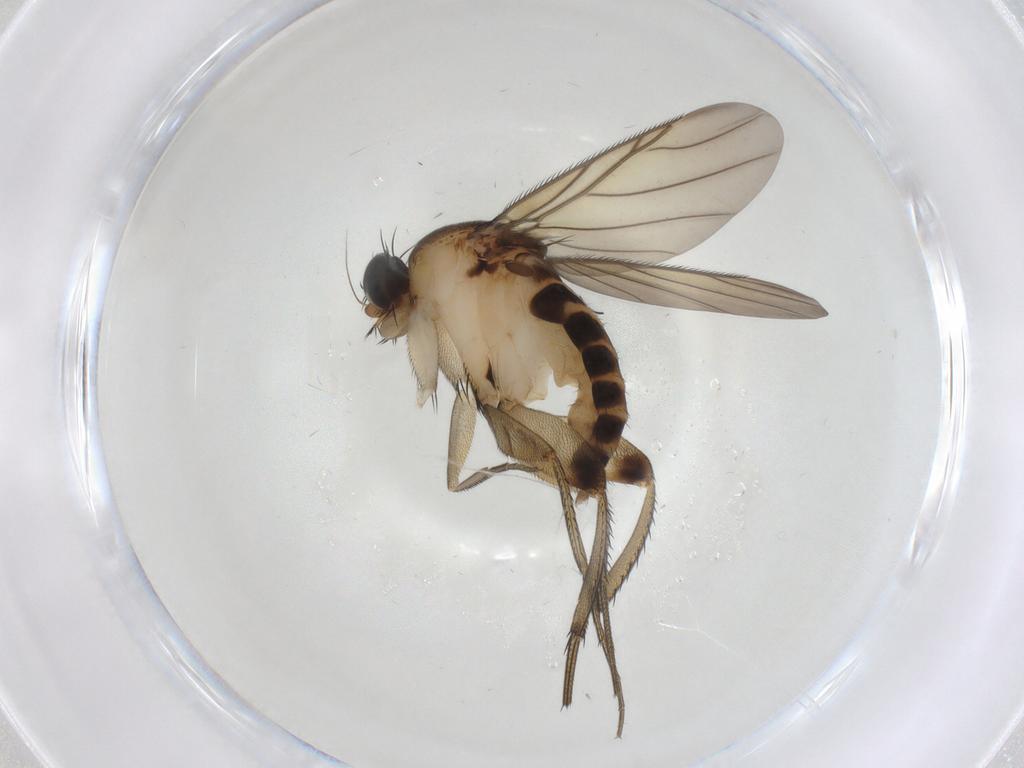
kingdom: Animalia
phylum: Arthropoda
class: Insecta
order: Diptera
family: Phoridae
